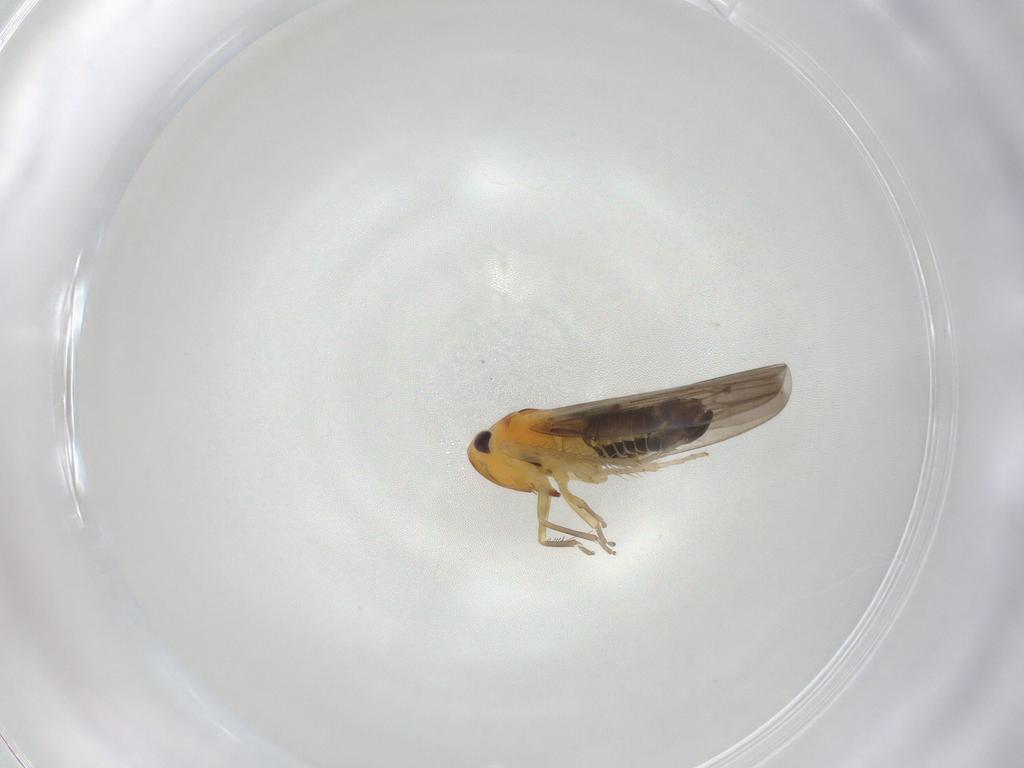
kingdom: Animalia
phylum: Arthropoda
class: Insecta
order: Hemiptera
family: Cicadellidae
